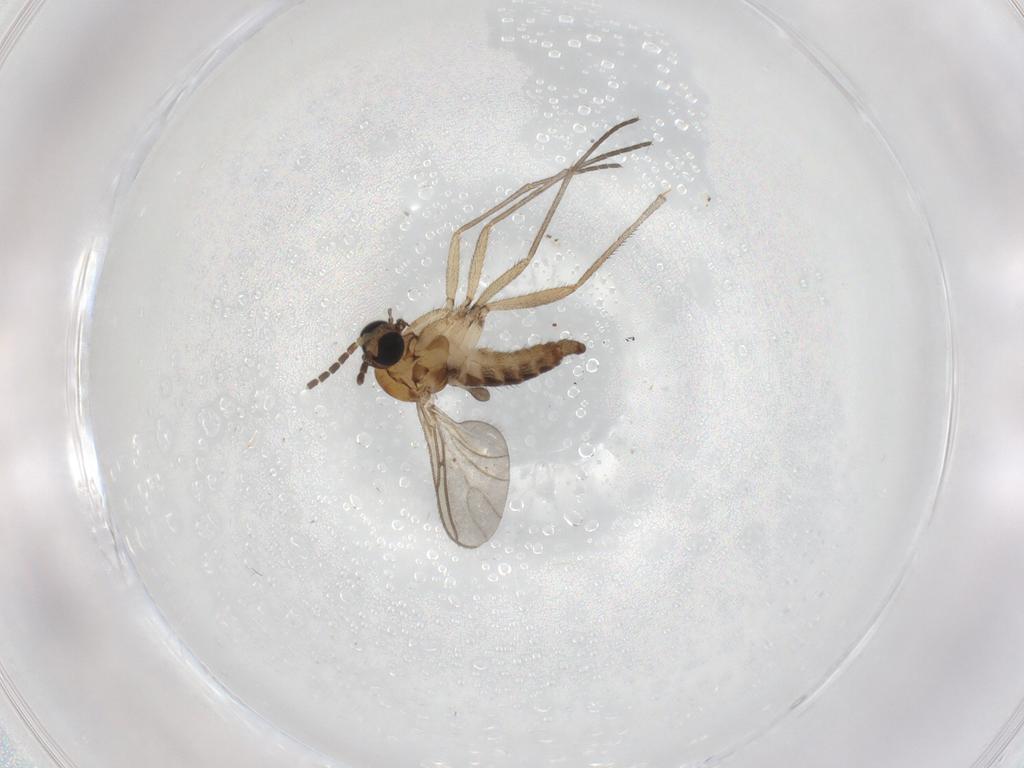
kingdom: Animalia
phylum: Arthropoda
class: Insecta
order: Diptera
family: Sciaridae
